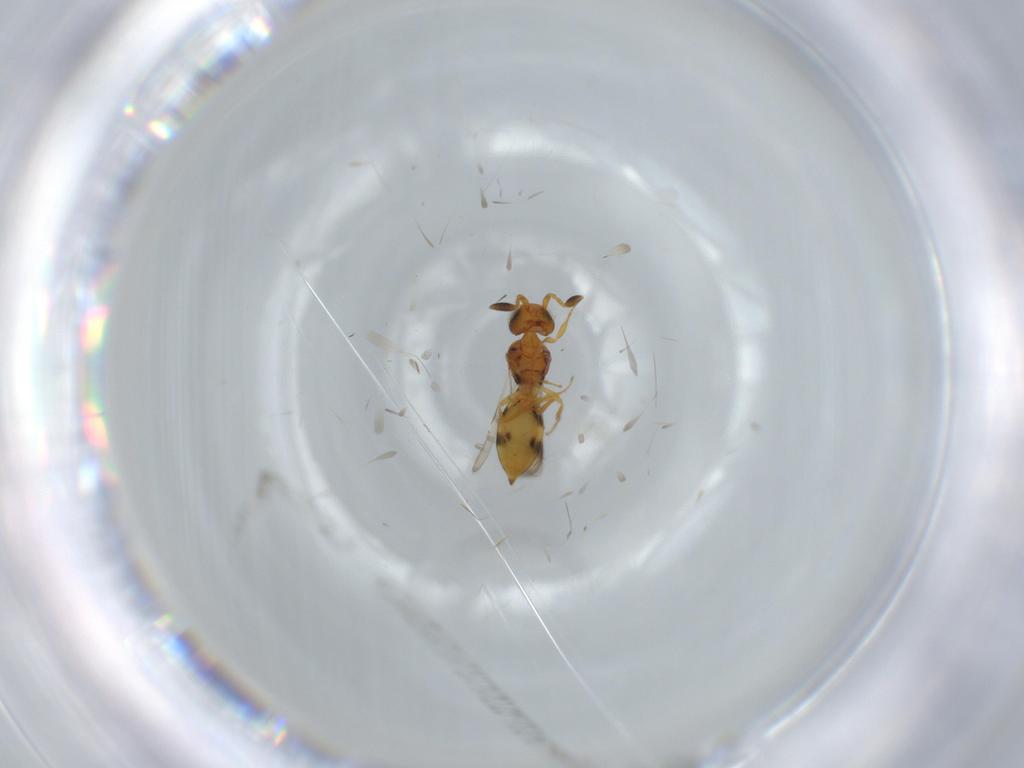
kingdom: Animalia
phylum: Arthropoda
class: Insecta
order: Hymenoptera
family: Scelionidae
